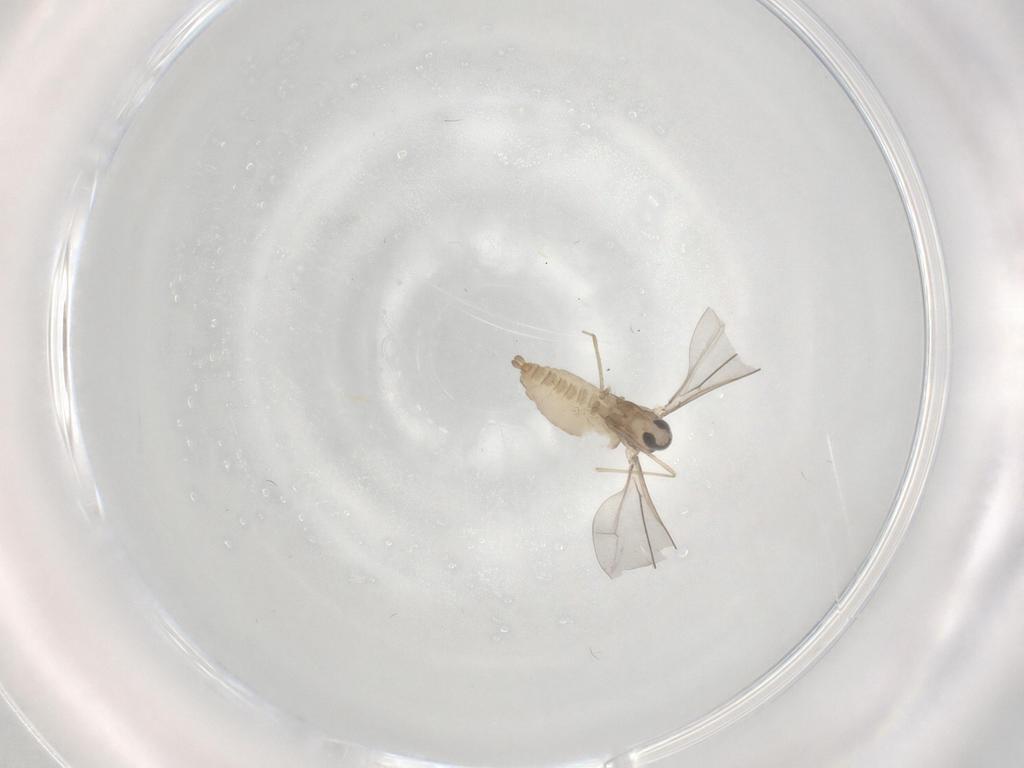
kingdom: Animalia
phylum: Arthropoda
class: Insecta
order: Diptera
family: Cecidomyiidae
